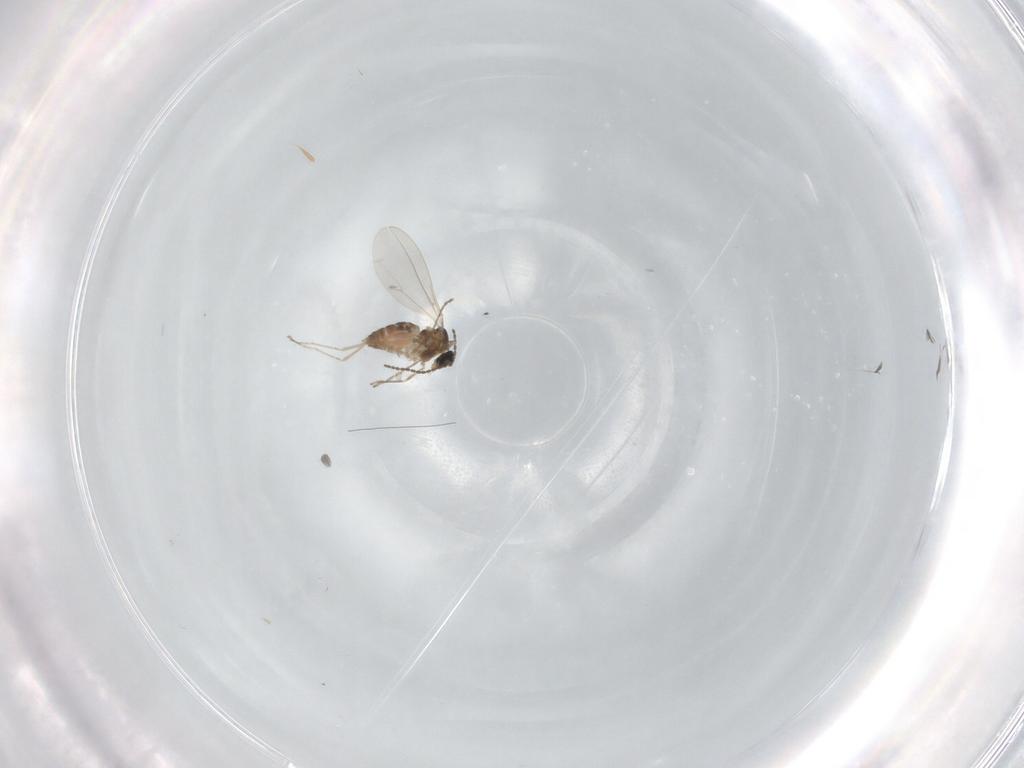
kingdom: Animalia
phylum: Arthropoda
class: Insecta
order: Diptera
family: Cecidomyiidae
